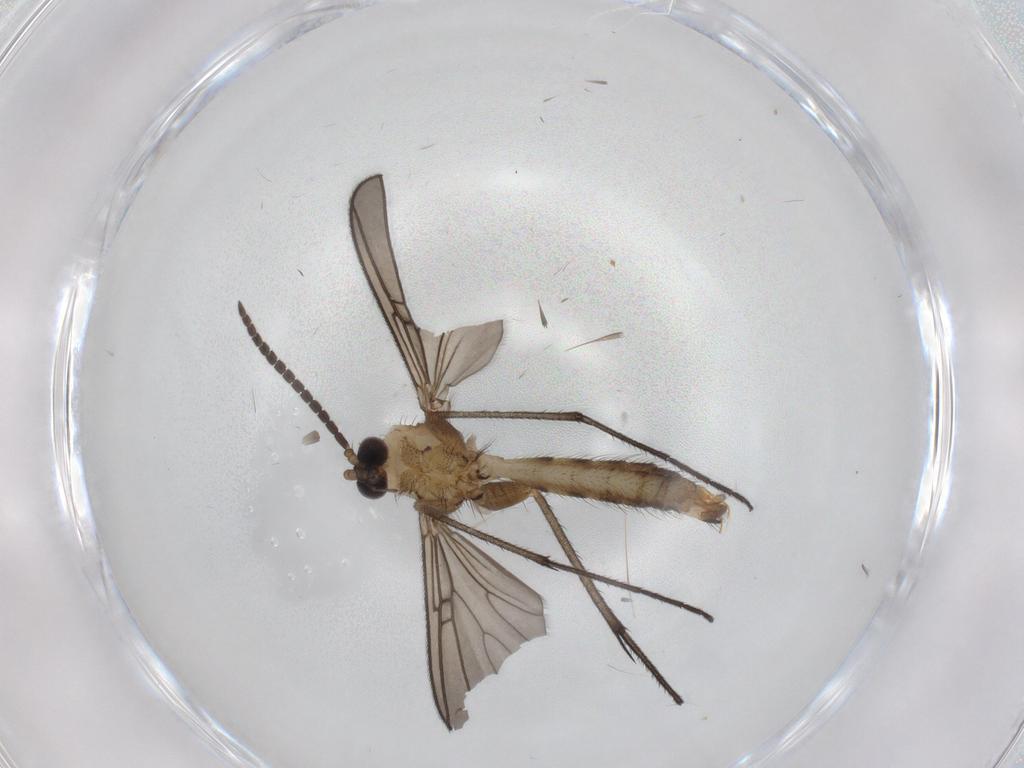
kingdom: Animalia
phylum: Arthropoda
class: Insecta
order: Diptera
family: Phoridae
